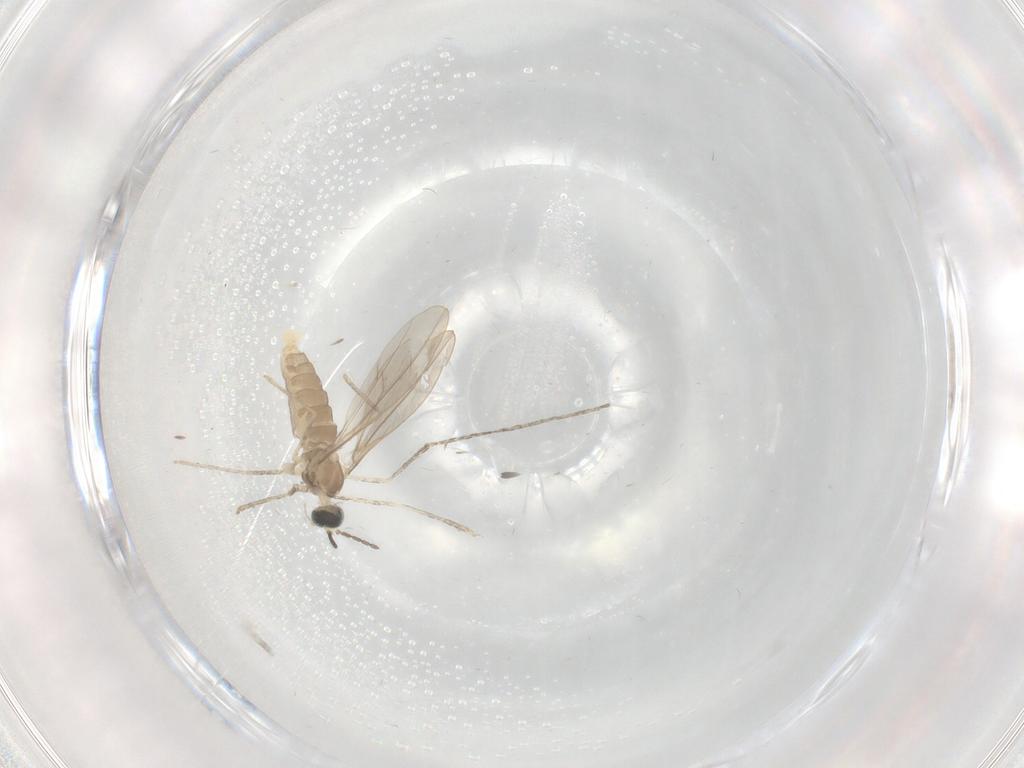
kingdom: Animalia
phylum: Arthropoda
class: Insecta
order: Diptera
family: Cecidomyiidae
